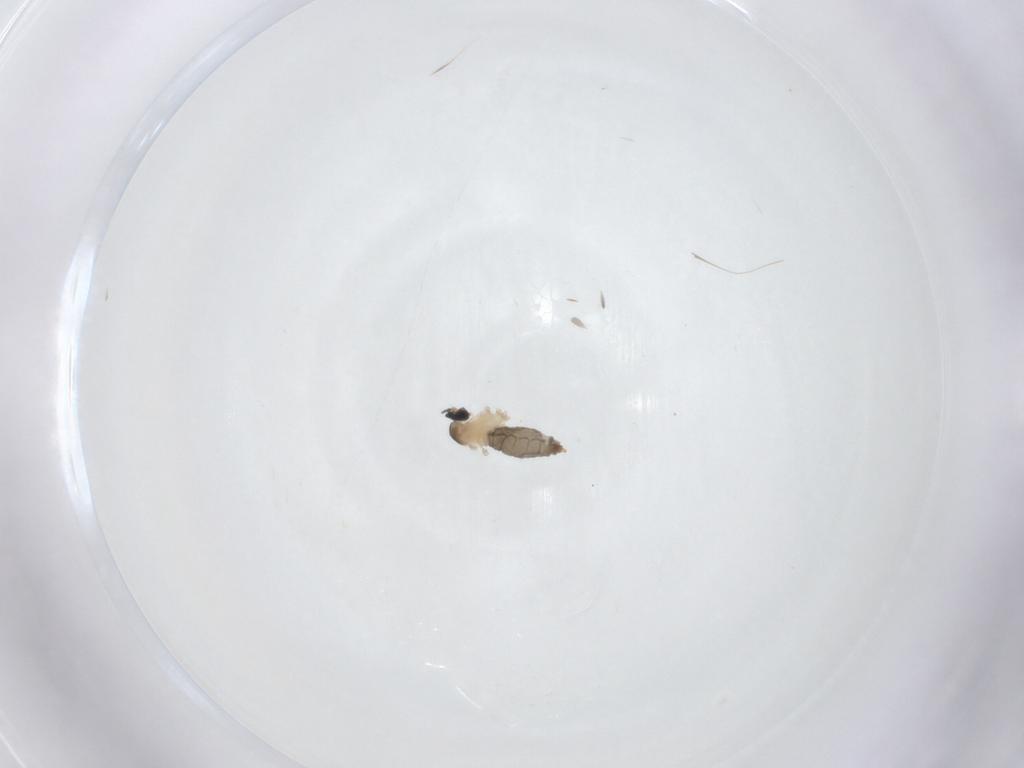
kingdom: Animalia
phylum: Arthropoda
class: Insecta
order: Diptera
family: Cecidomyiidae
